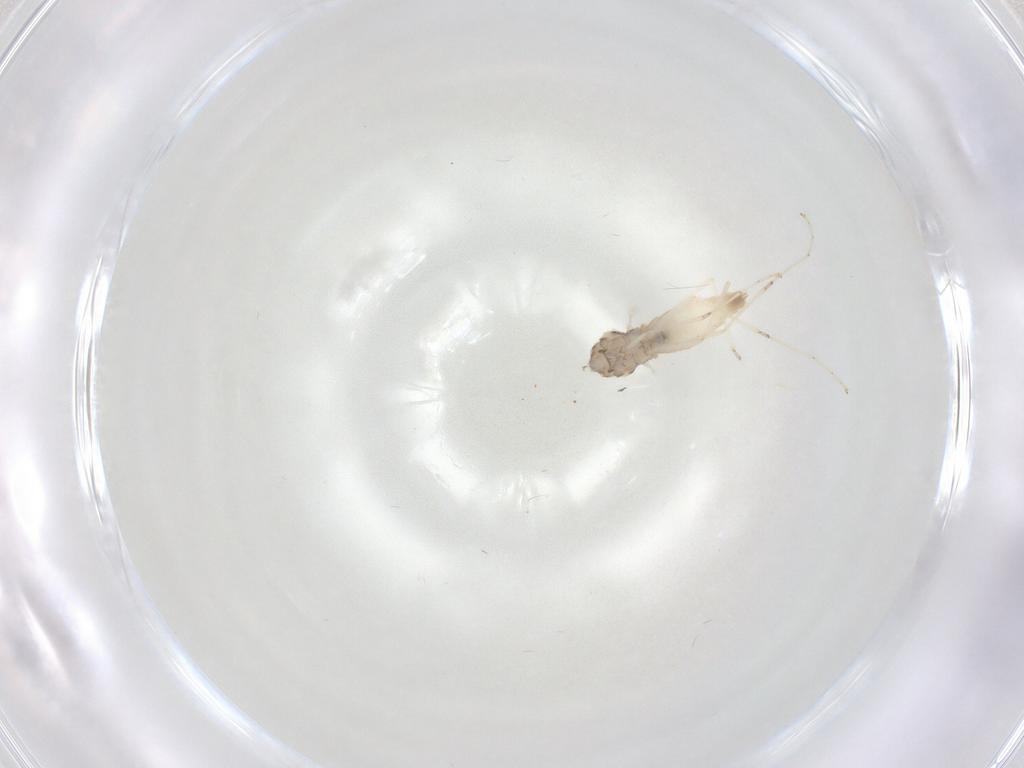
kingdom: Animalia
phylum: Arthropoda
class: Insecta
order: Diptera
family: Cecidomyiidae
